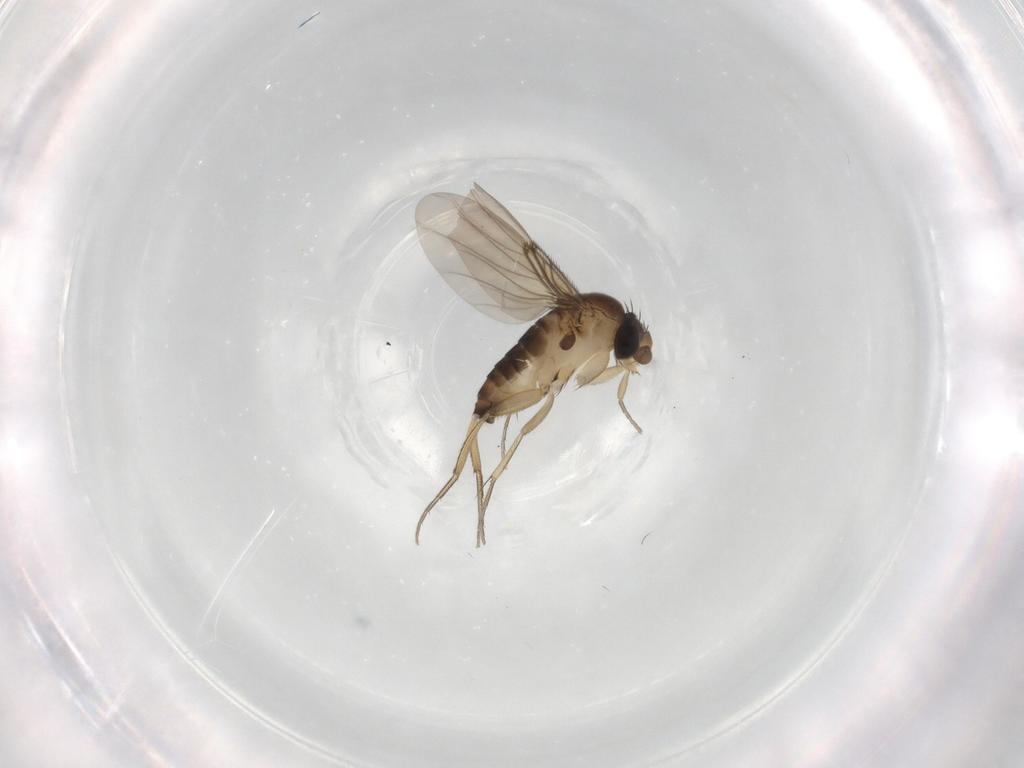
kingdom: Animalia
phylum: Arthropoda
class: Insecta
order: Diptera
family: Phoridae
